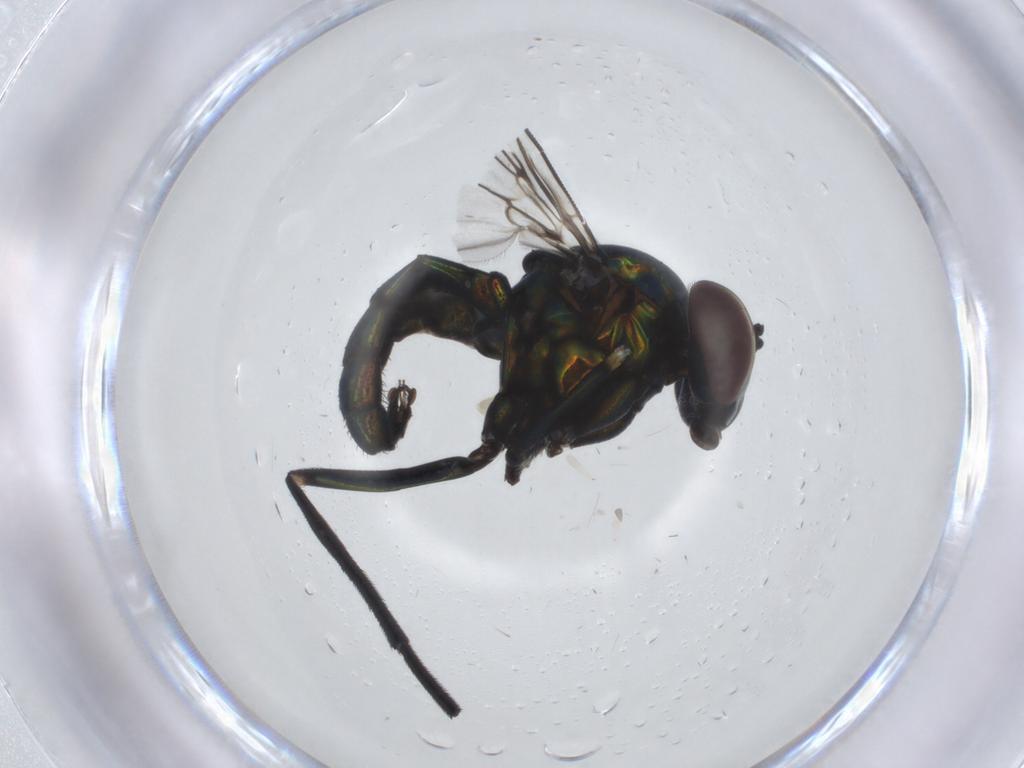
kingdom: Animalia
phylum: Arthropoda
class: Insecta
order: Diptera
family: Dolichopodidae
